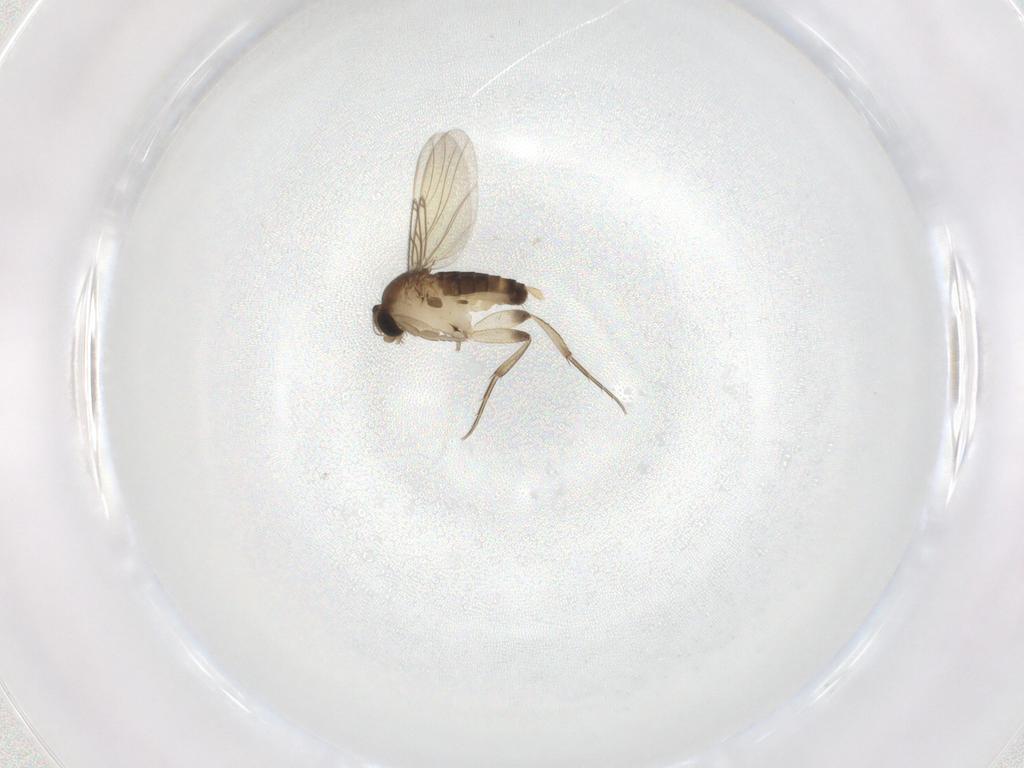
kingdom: Animalia
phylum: Arthropoda
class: Insecta
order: Diptera
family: Phoridae
